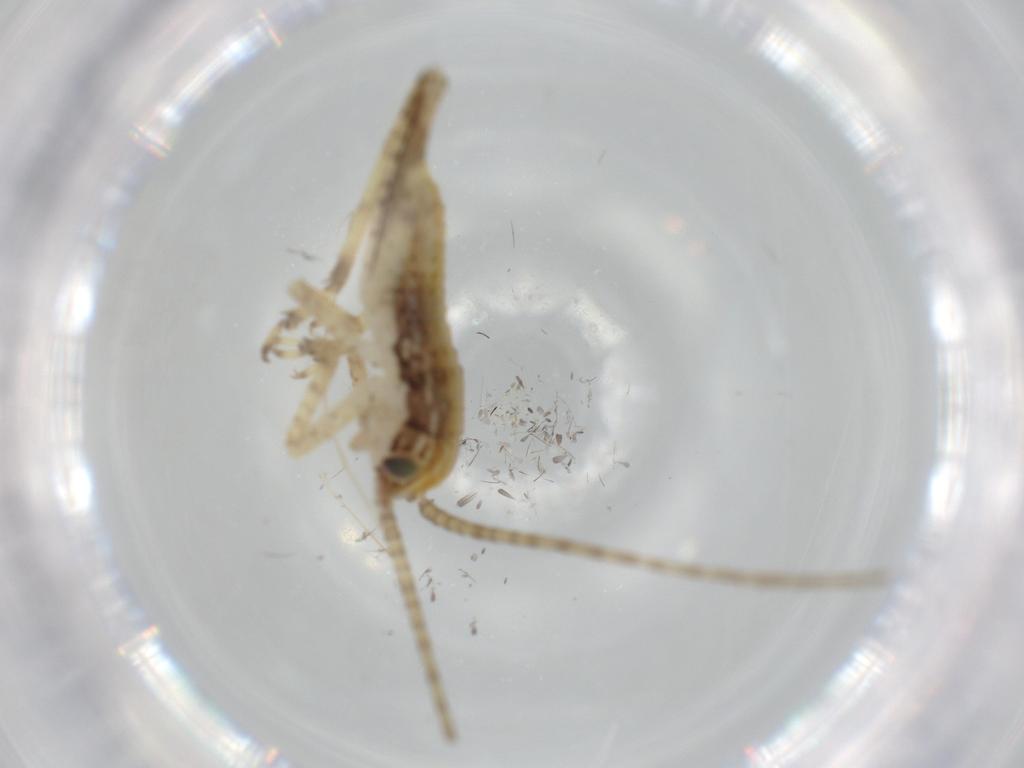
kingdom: Animalia
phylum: Arthropoda
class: Insecta
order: Orthoptera
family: Gryllidae
